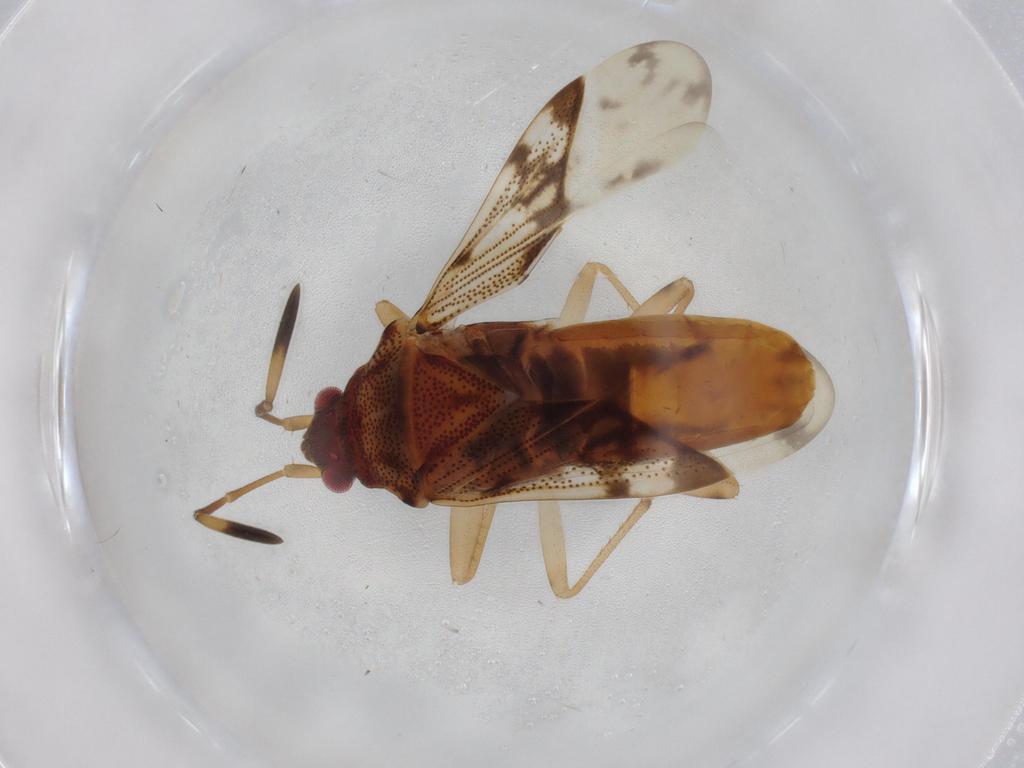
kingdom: Animalia
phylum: Arthropoda
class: Insecta
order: Hemiptera
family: Rhyparochromidae
